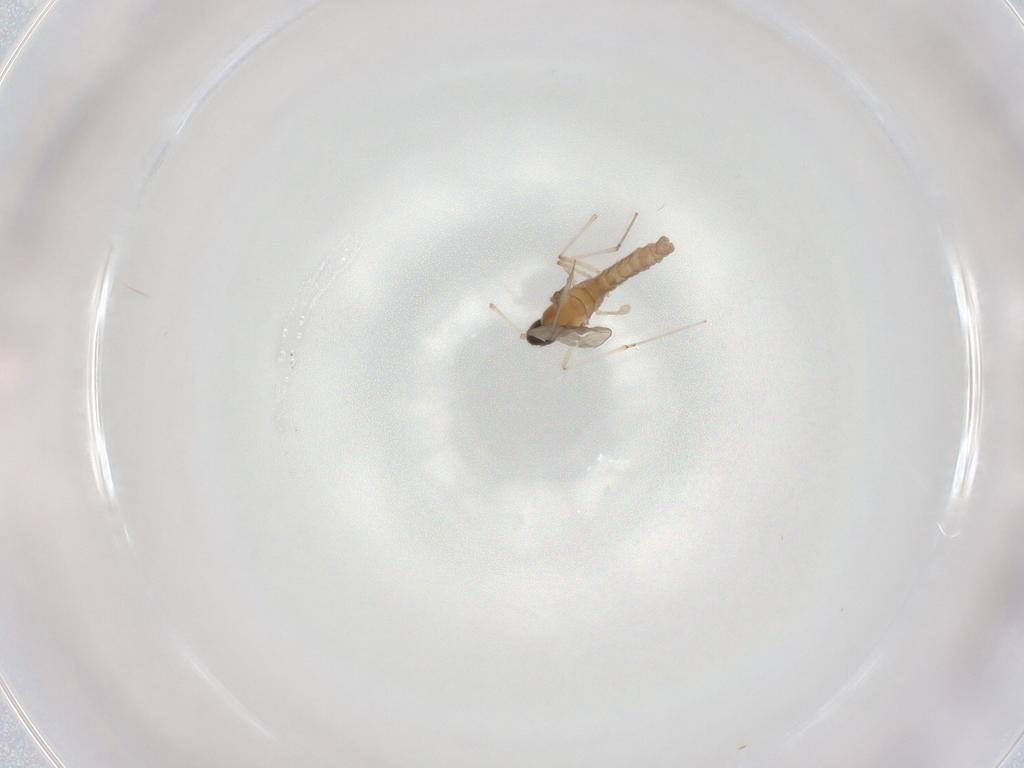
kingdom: Animalia
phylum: Arthropoda
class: Insecta
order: Diptera
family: Cecidomyiidae
